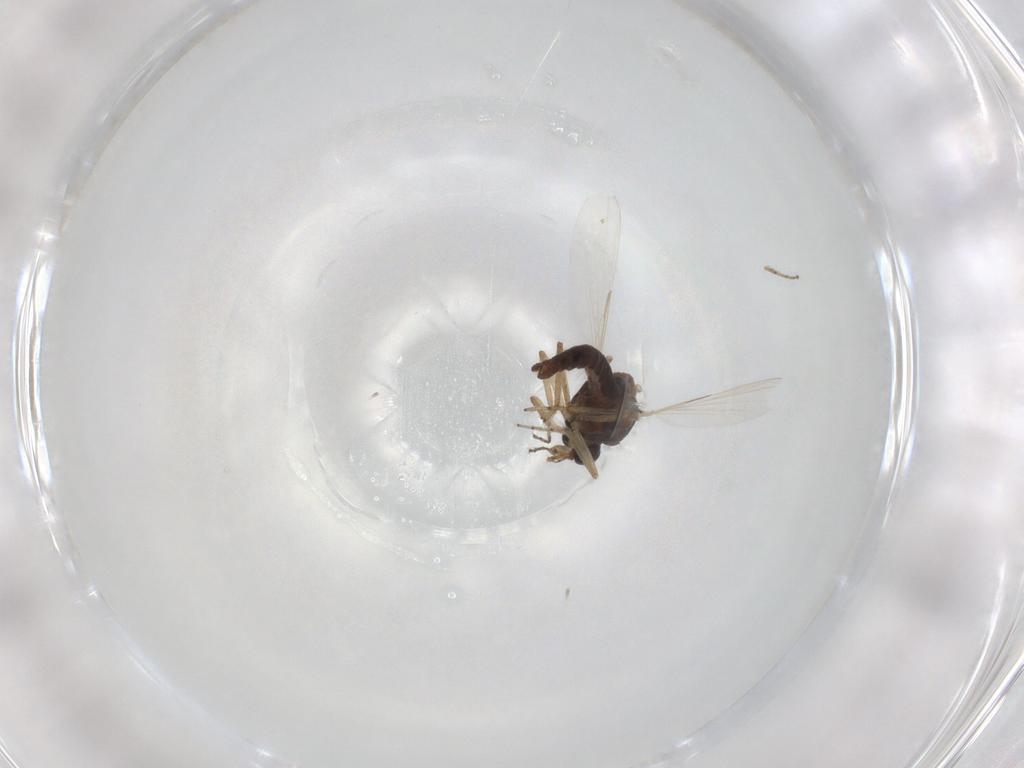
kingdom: Animalia
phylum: Arthropoda
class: Insecta
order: Diptera
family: Ceratopogonidae
